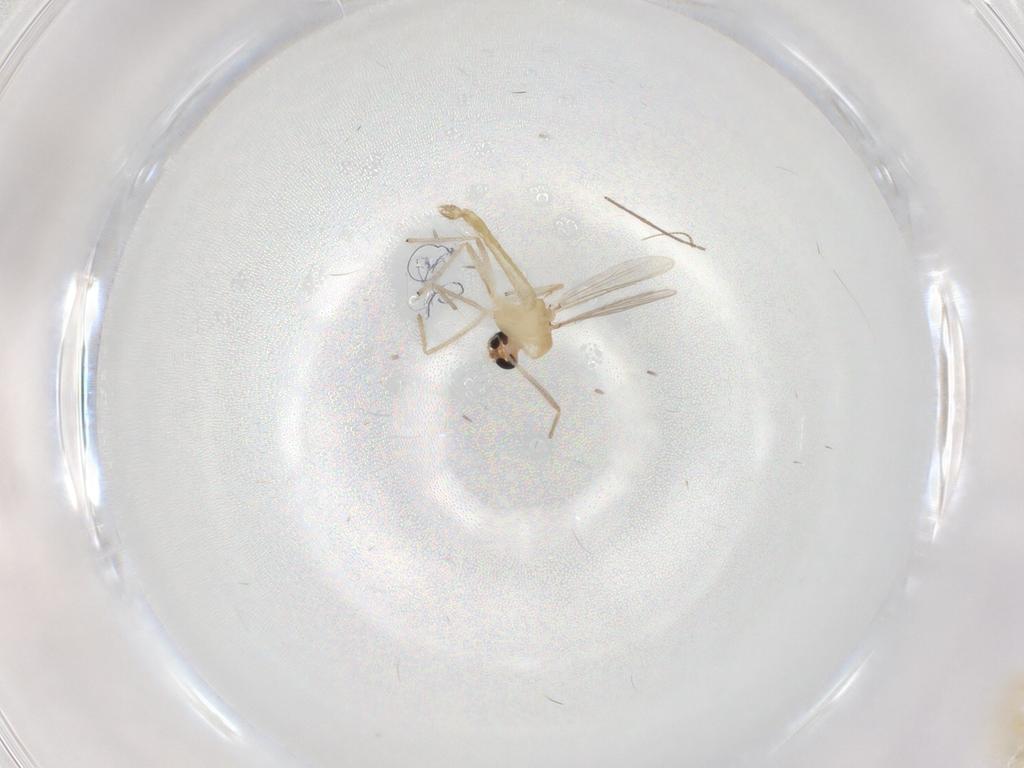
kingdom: Animalia
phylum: Arthropoda
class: Insecta
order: Diptera
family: Chironomidae
